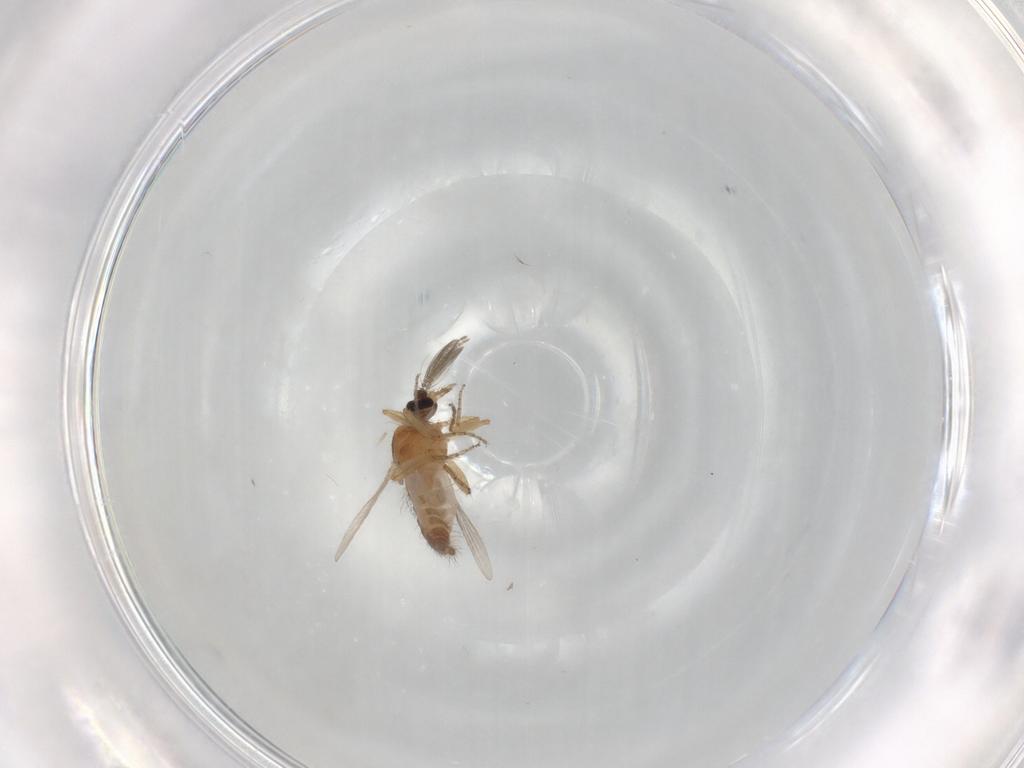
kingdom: Animalia
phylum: Arthropoda
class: Insecta
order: Diptera
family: Ceratopogonidae
